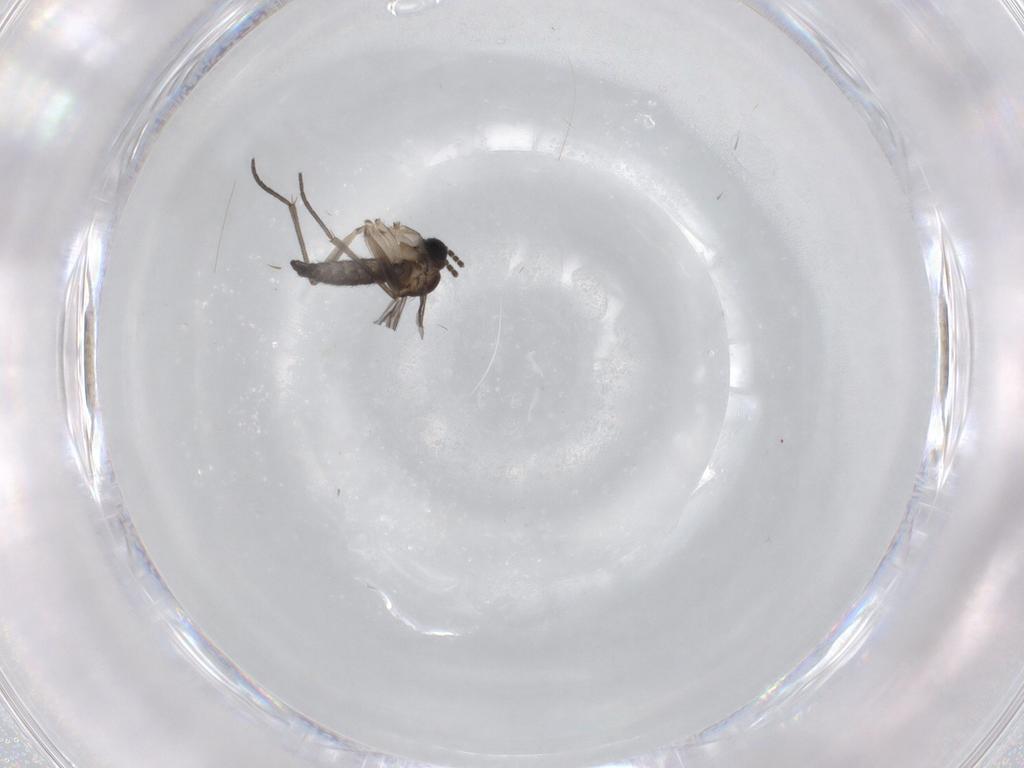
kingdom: Animalia
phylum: Arthropoda
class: Insecta
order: Diptera
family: Sciaridae
